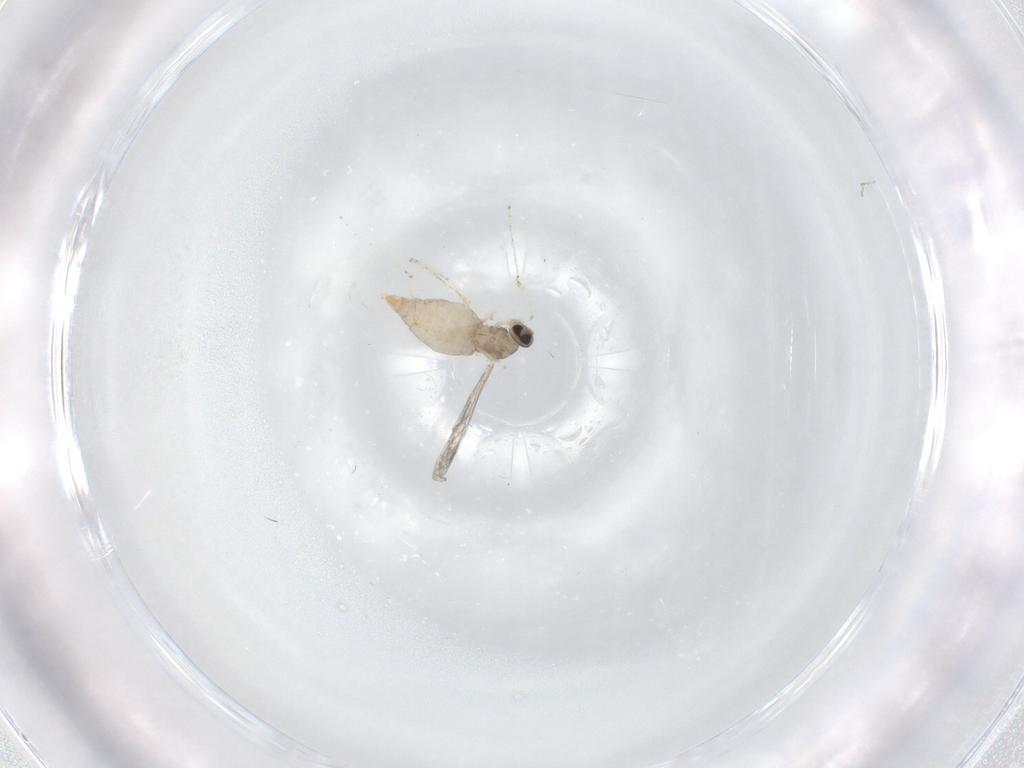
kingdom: Animalia
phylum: Arthropoda
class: Insecta
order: Diptera
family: Cecidomyiidae
